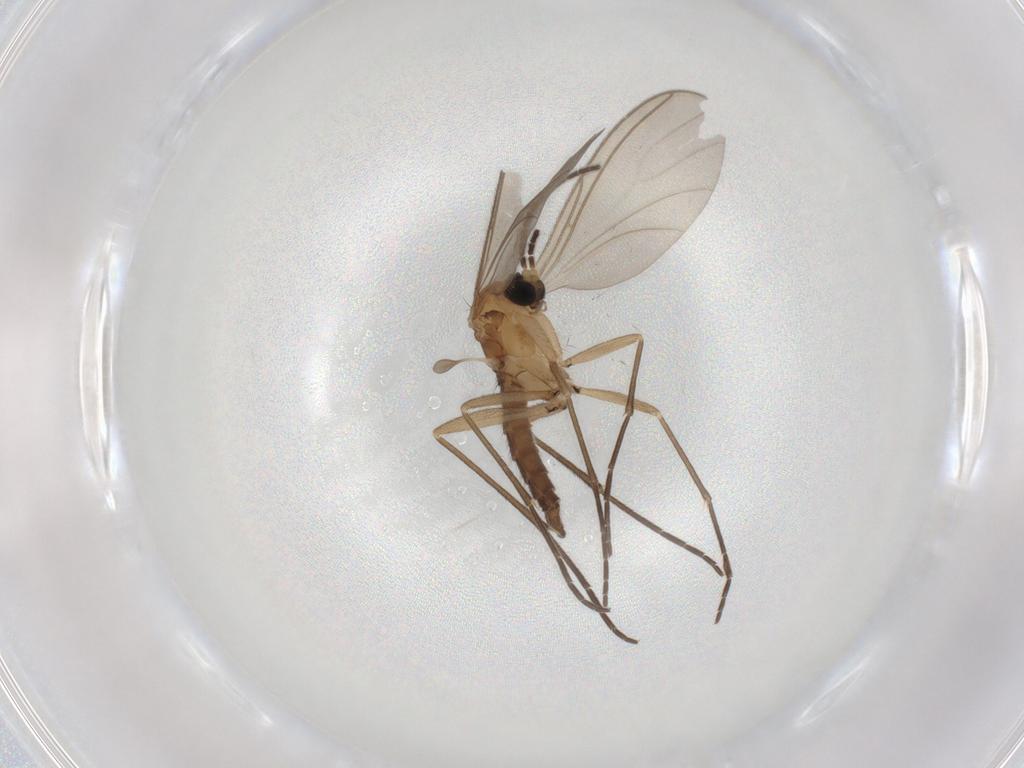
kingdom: Animalia
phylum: Arthropoda
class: Insecta
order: Diptera
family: Sciaridae
